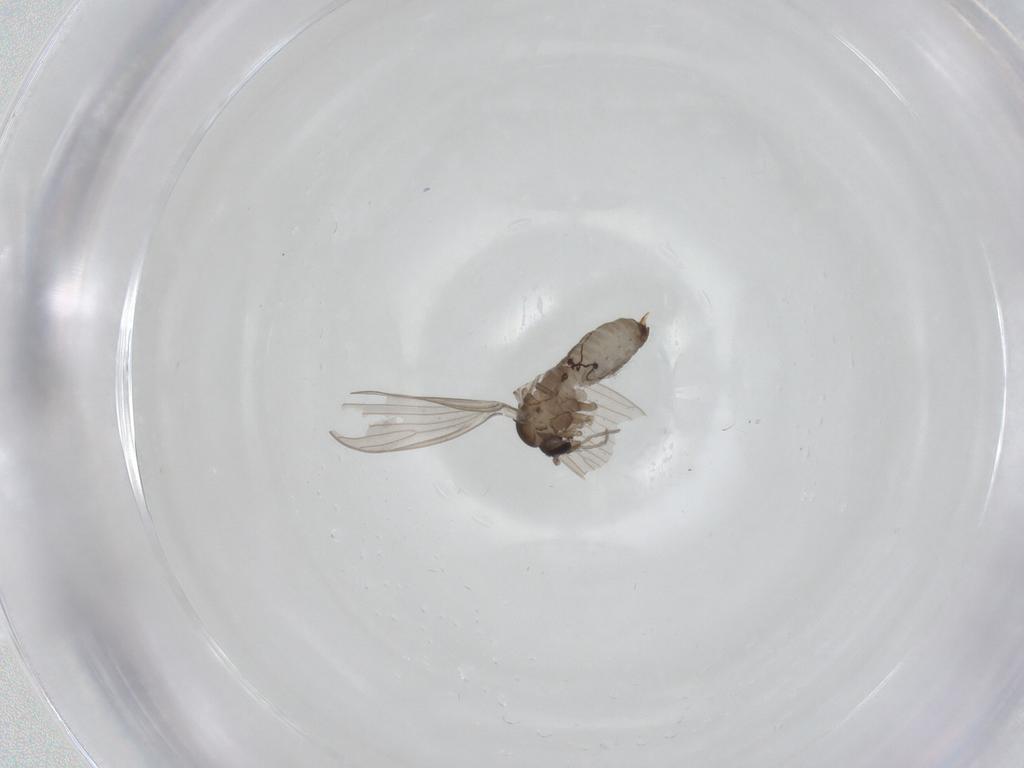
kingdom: Animalia
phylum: Arthropoda
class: Insecta
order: Diptera
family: Psychodidae
